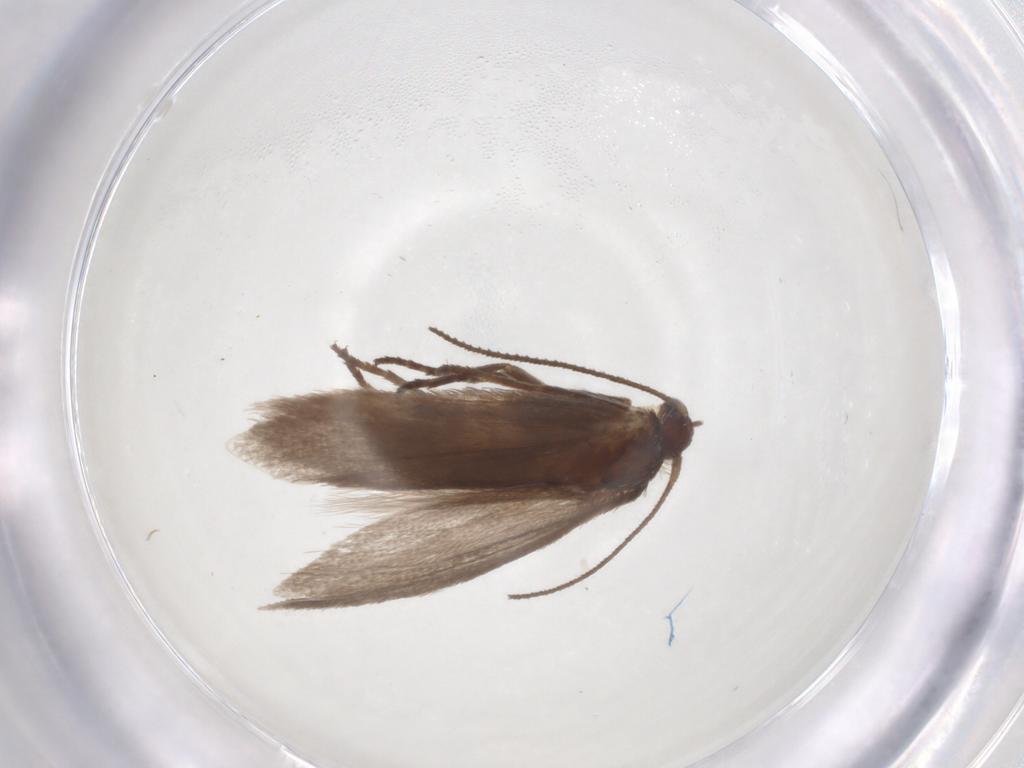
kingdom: Animalia
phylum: Arthropoda
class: Insecta
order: Lepidoptera
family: Limacodidae
